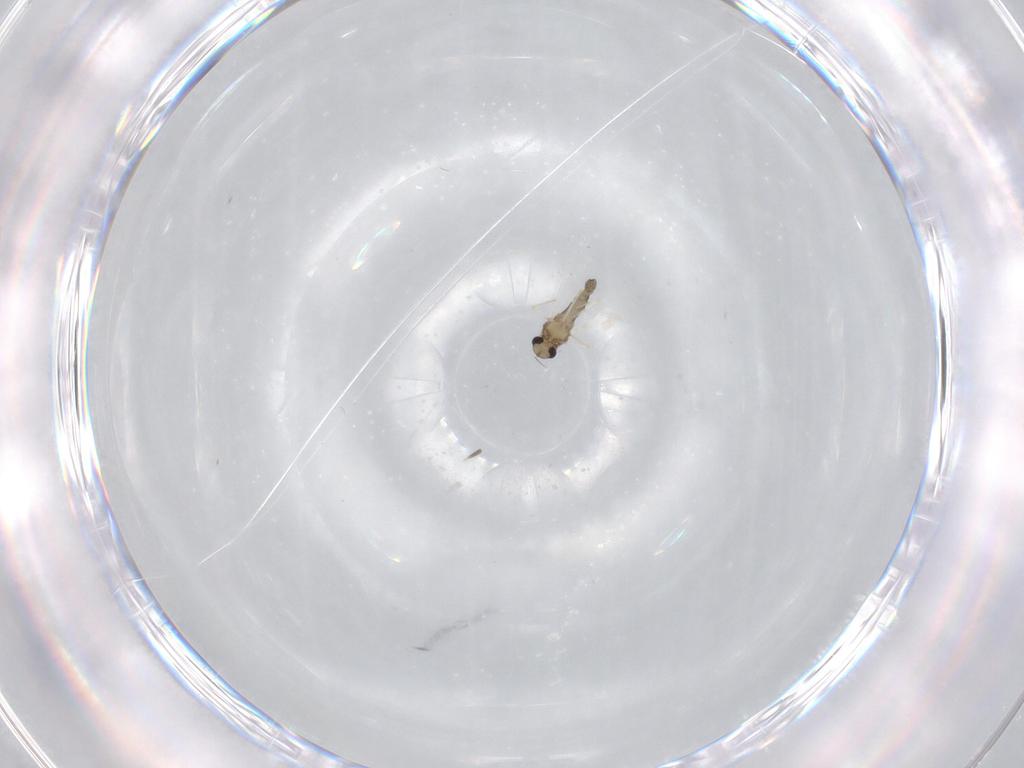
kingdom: Animalia
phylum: Arthropoda
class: Insecta
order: Diptera
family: Chironomidae
